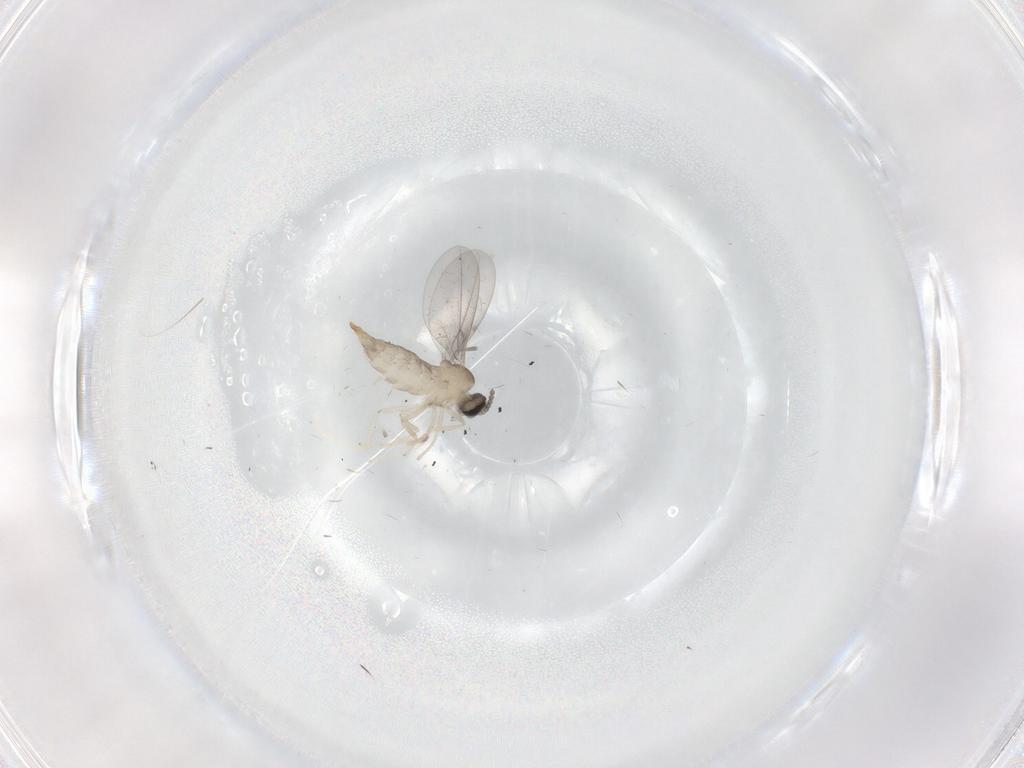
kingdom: Animalia
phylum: Arthropoda
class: Insecta
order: Diptera
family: Cecidomyiidae
